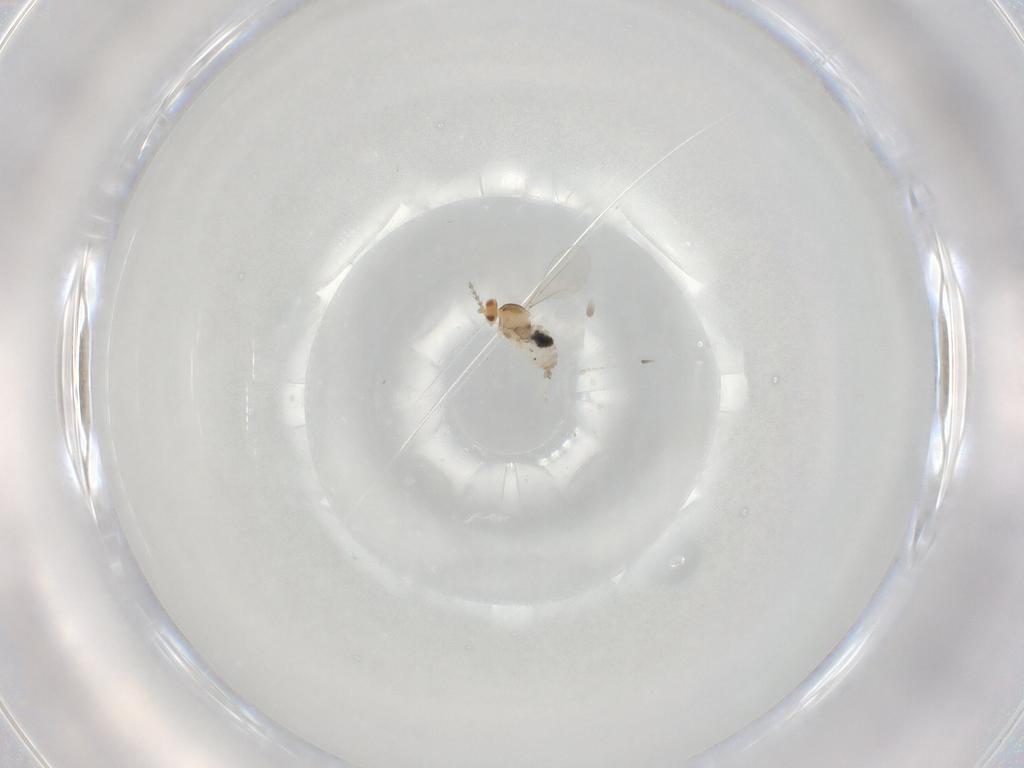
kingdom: Animalia
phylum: Arthropoda
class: Insecta
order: Diptera
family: Cecidomyiidae
